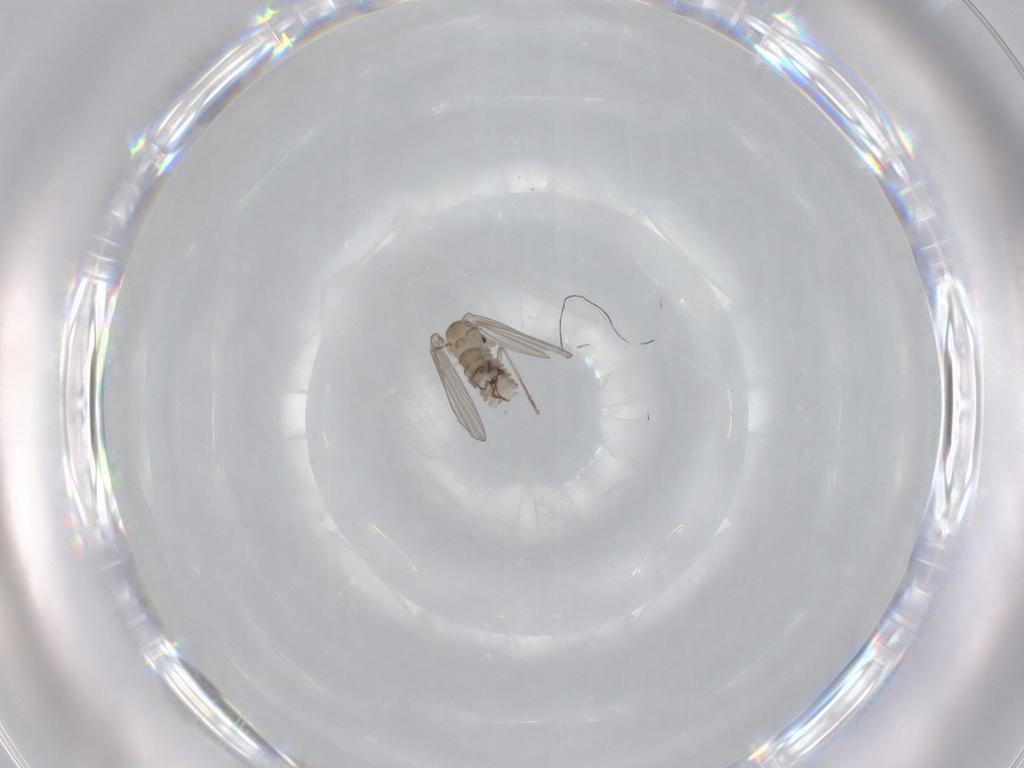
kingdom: Animalia
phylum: Arthropoda
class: Insecta
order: Diptera
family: Psychodidae
